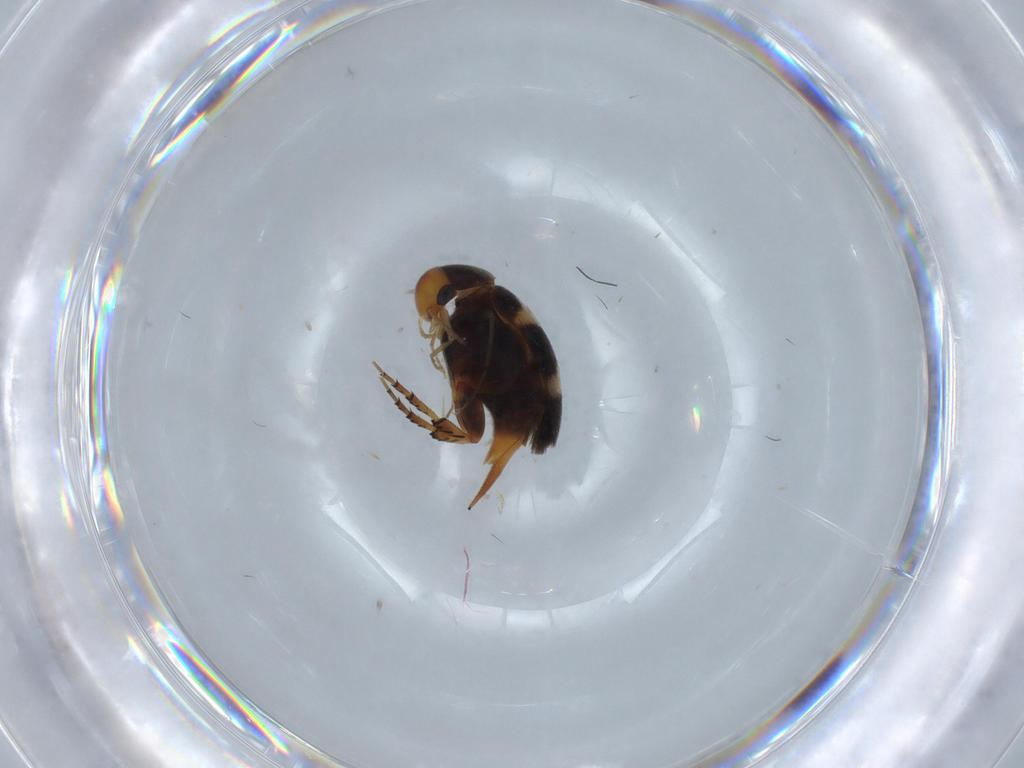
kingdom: Animalia
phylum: Arthropoda
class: Insecta
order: Coleoptera
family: Mordellidae
